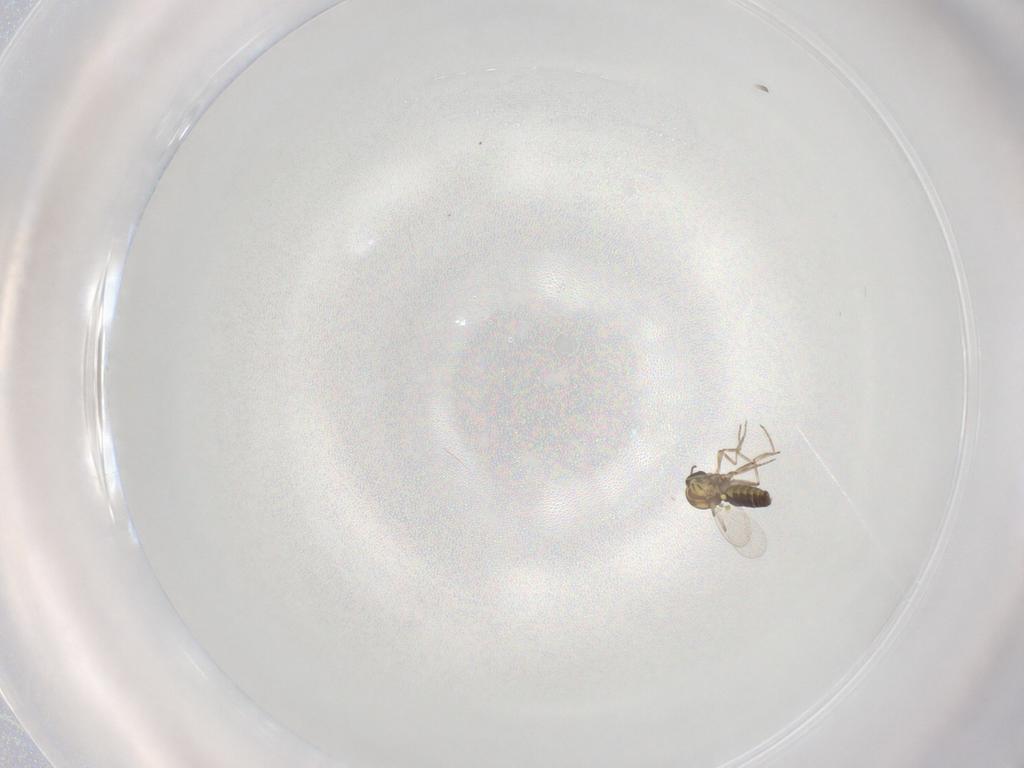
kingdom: Animalia
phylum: Arthropoda
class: Insecta
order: Diptera
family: Ceratopogonidae
